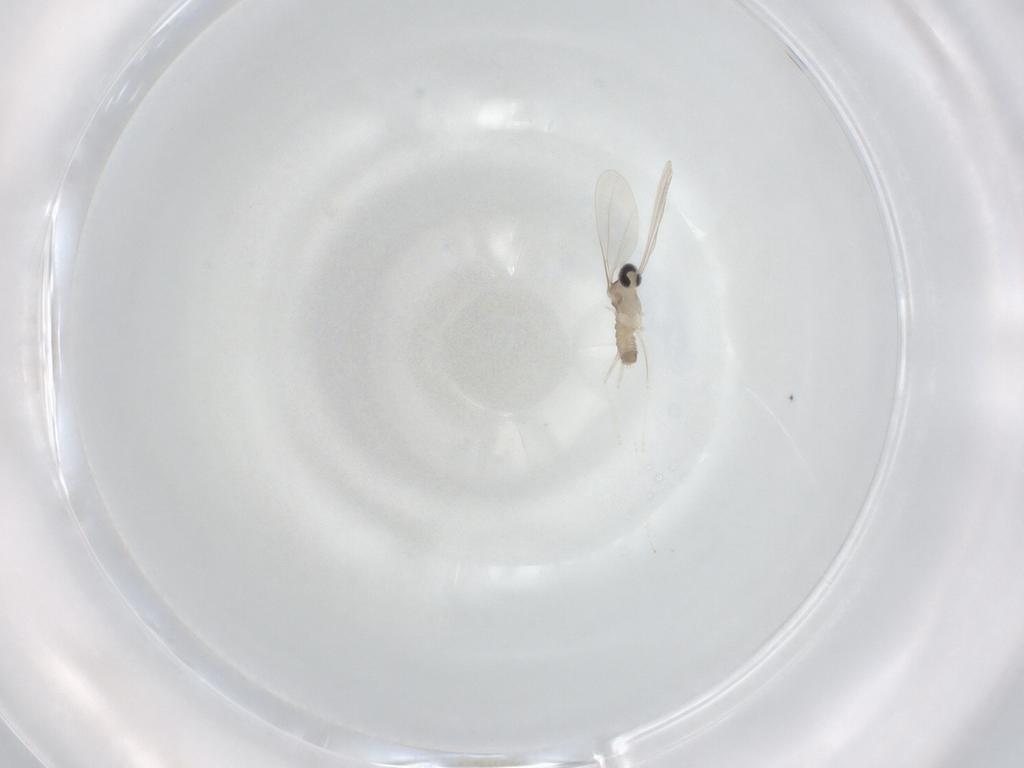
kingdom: Animalia
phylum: Arthropoda
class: Insecta
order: Diptera
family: Cecidomyiidae
